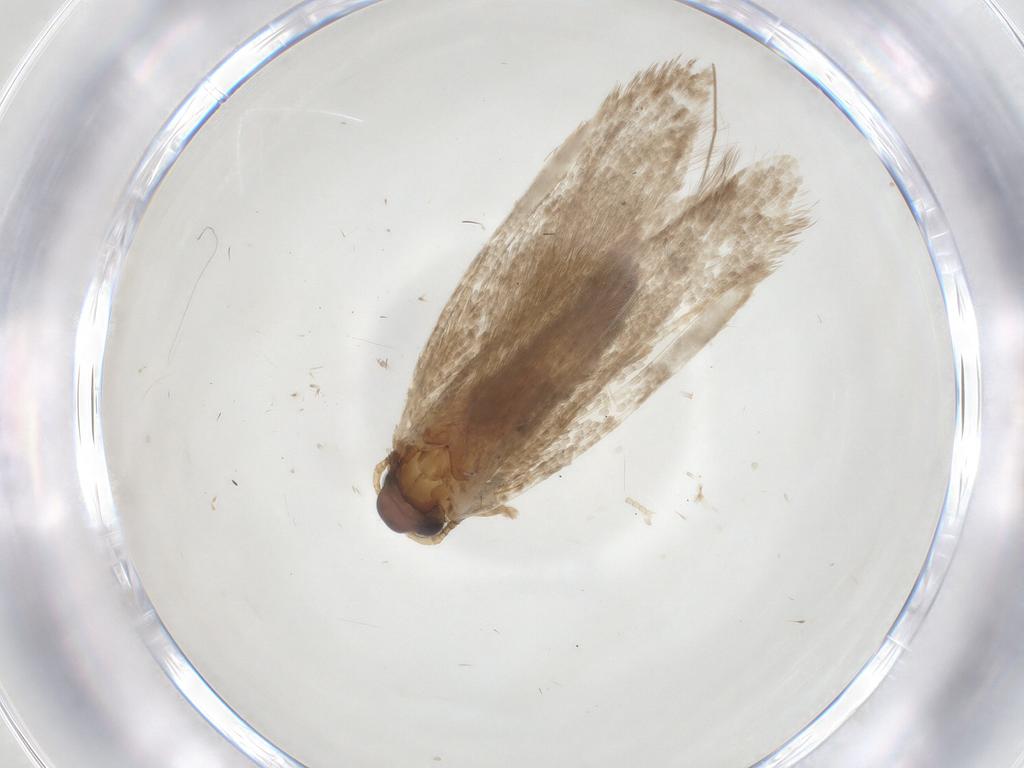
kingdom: Animalia
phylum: Arthropoda
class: Insecta
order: Lepidoptera
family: Blastobasidae
